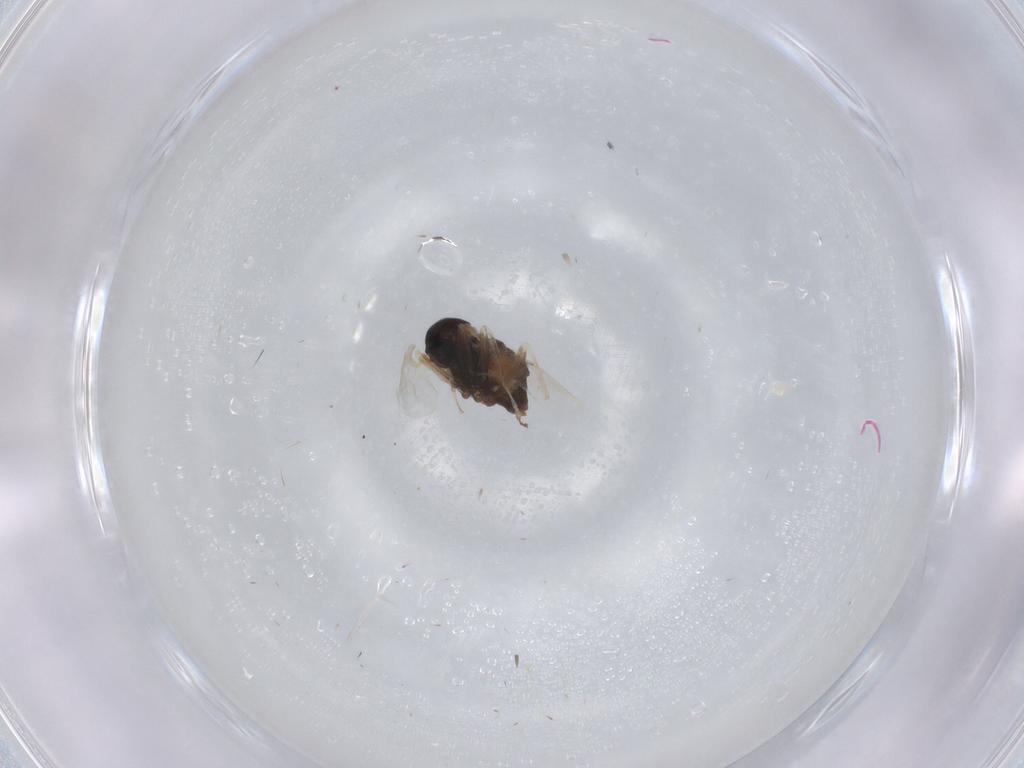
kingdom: Animalia
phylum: Arthropoda
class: Insecta
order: Diptera
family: Cecidomyiidae
